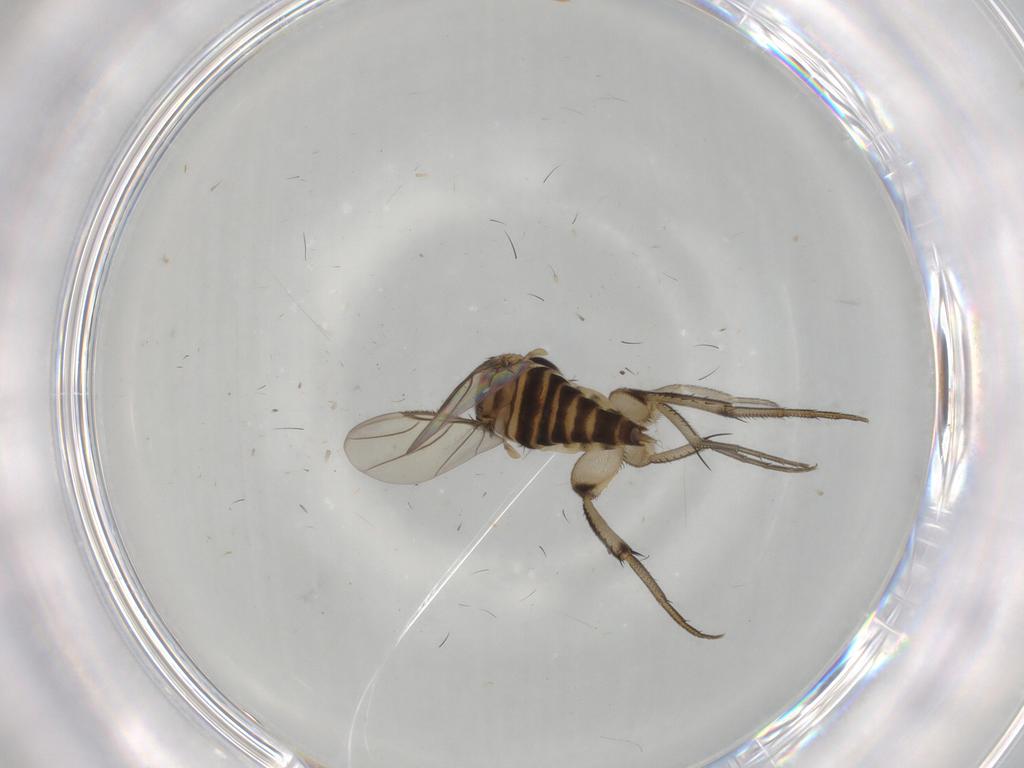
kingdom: Animalia
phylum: Arthropoda
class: Insecta
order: Diptera
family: Phoridae
